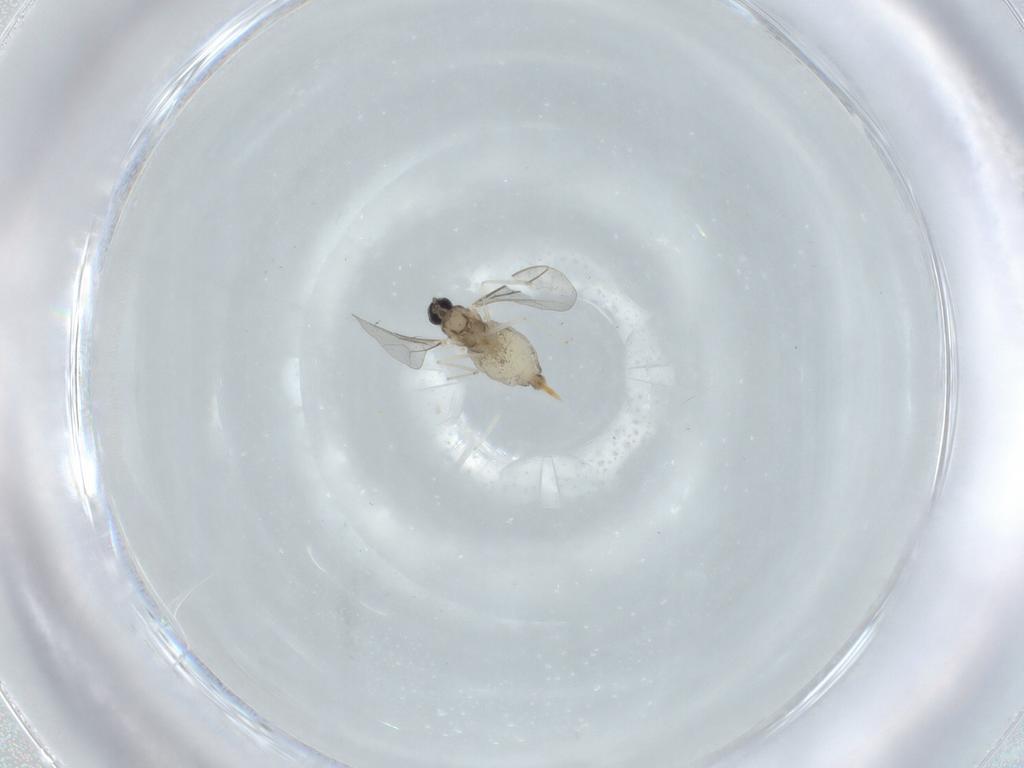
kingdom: Animalia
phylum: Arthropoda
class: Insecta
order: Diptera
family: Cecidomyiidae
